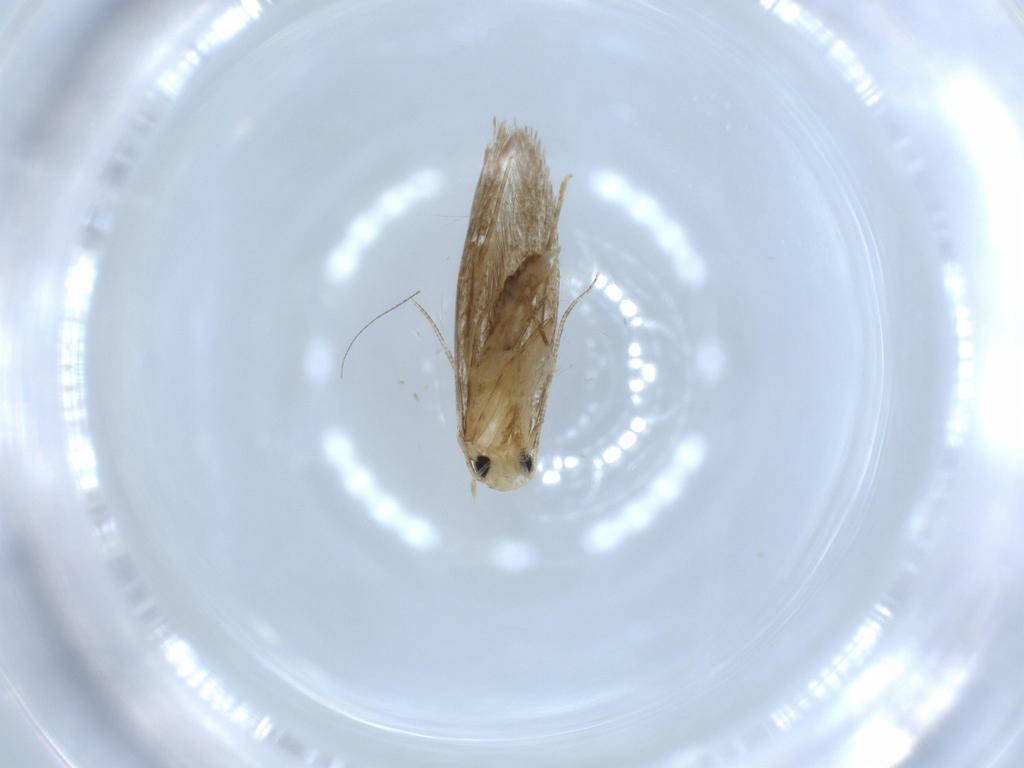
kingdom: Animalia
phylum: Arthropoda
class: Insecta
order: Lepidoptera
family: Tineidae
